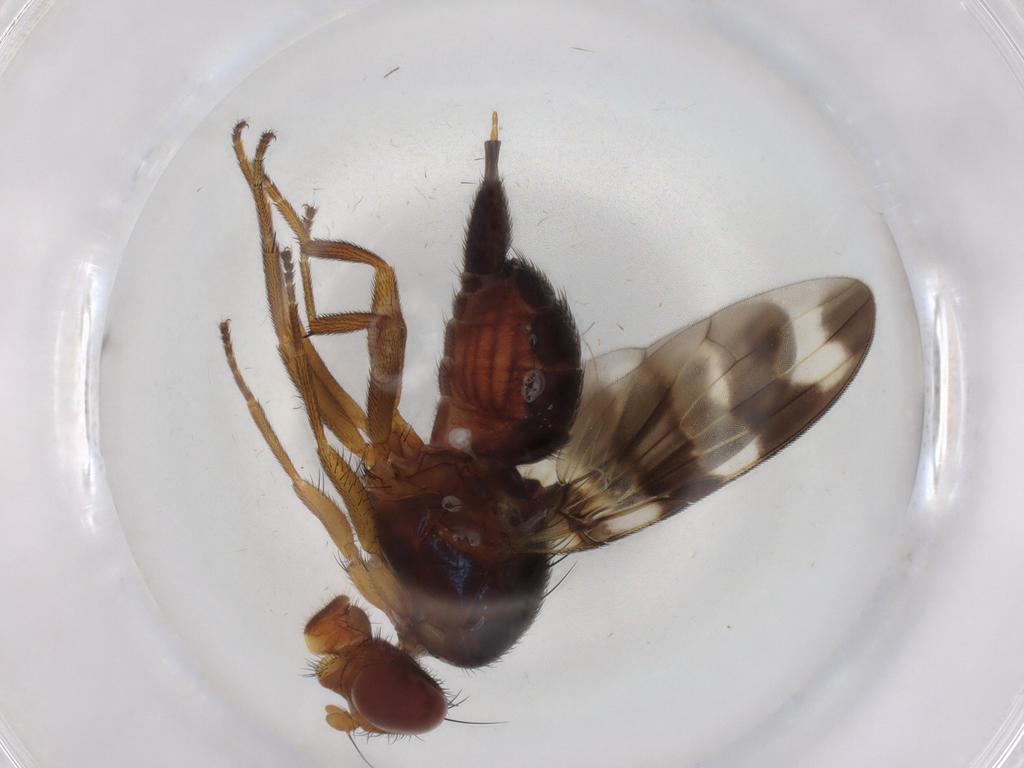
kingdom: Animalia
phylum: Arthropoda
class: Insecta
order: Diptera
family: Ulidiidae
